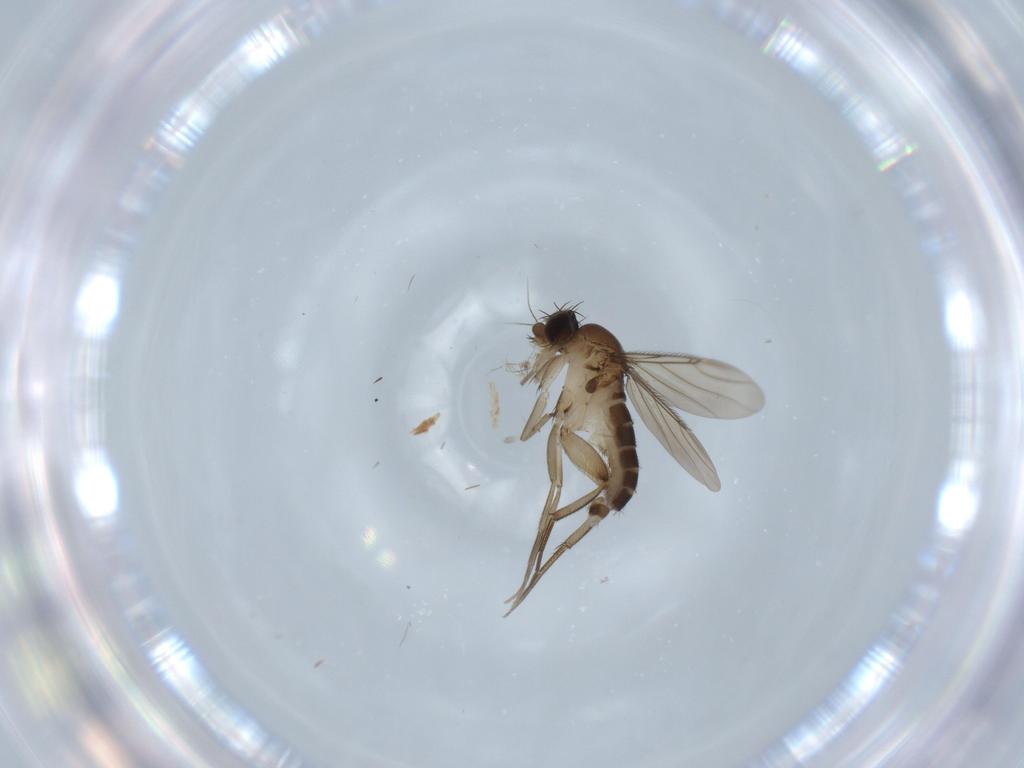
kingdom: Animalia
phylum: Arthropoda
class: Insecta
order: Diptera
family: Phoridae
